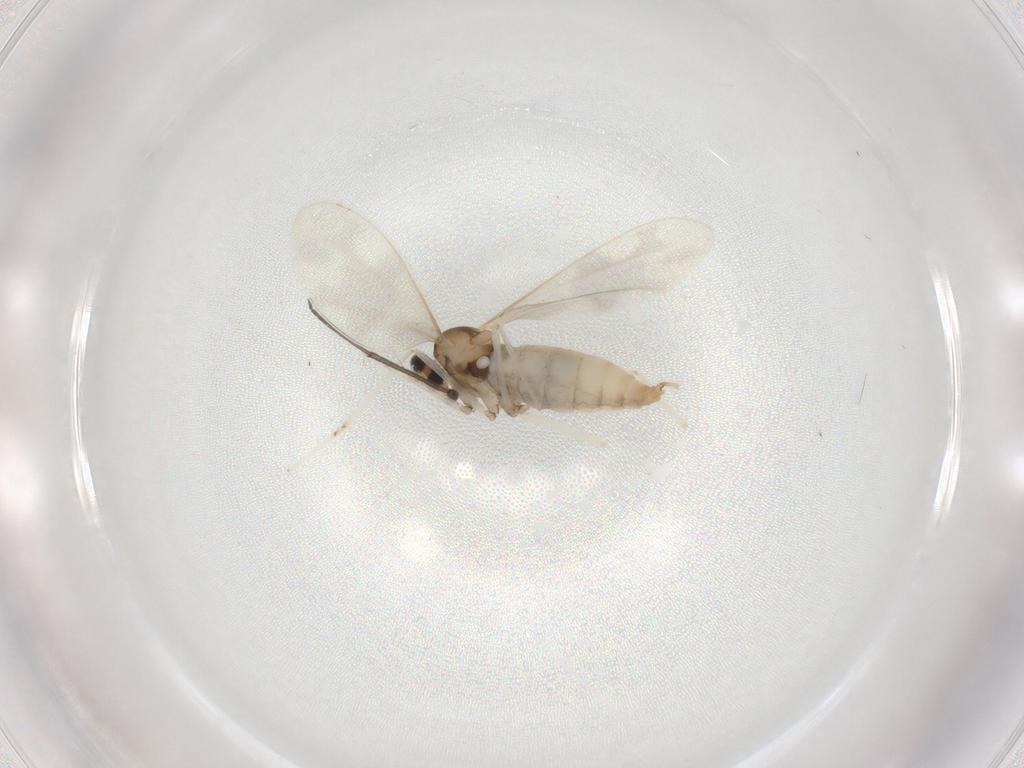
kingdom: Animalia
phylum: Arthropoda
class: Insecta
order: Diptera
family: Cecidomyiidae
